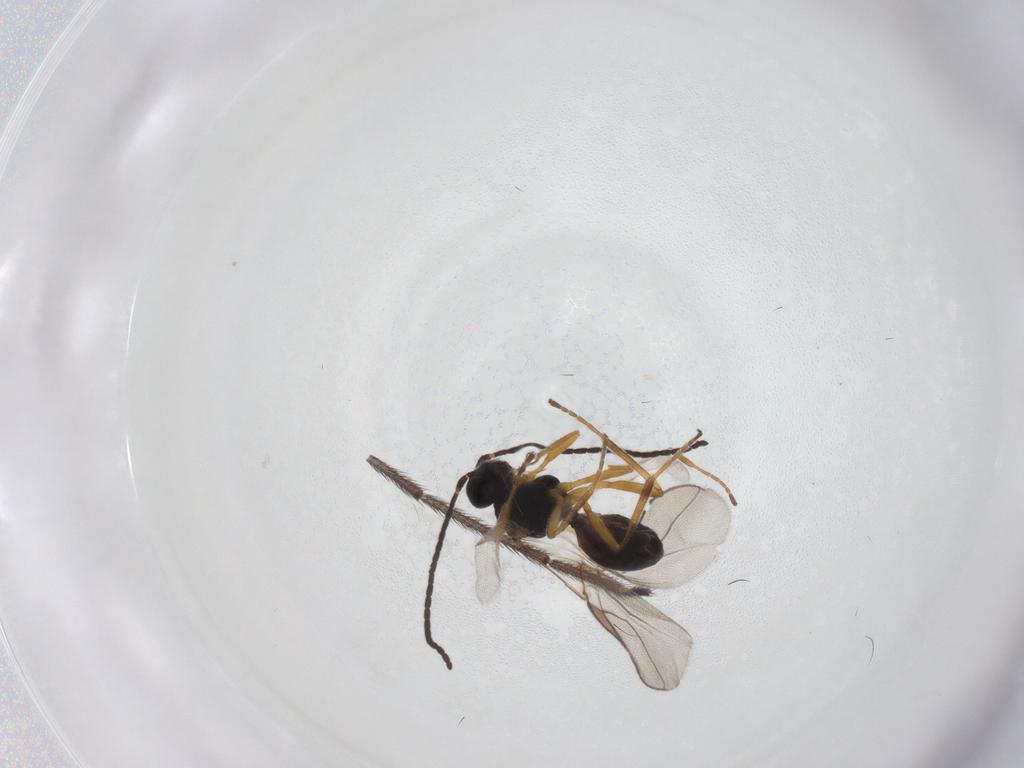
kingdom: Animalia
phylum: Arthropoda
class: Insecta
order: Hymenoptera
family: Braconidae
